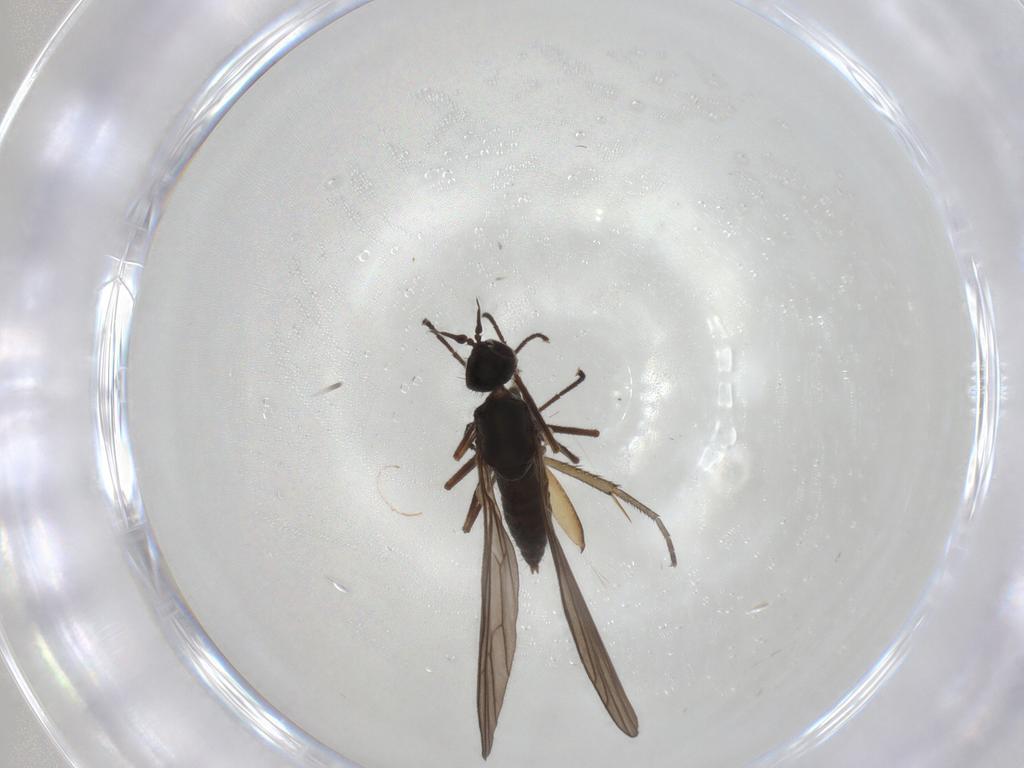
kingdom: Animalia
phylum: Arthropoda
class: Insecta
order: Diptera
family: Empididae
